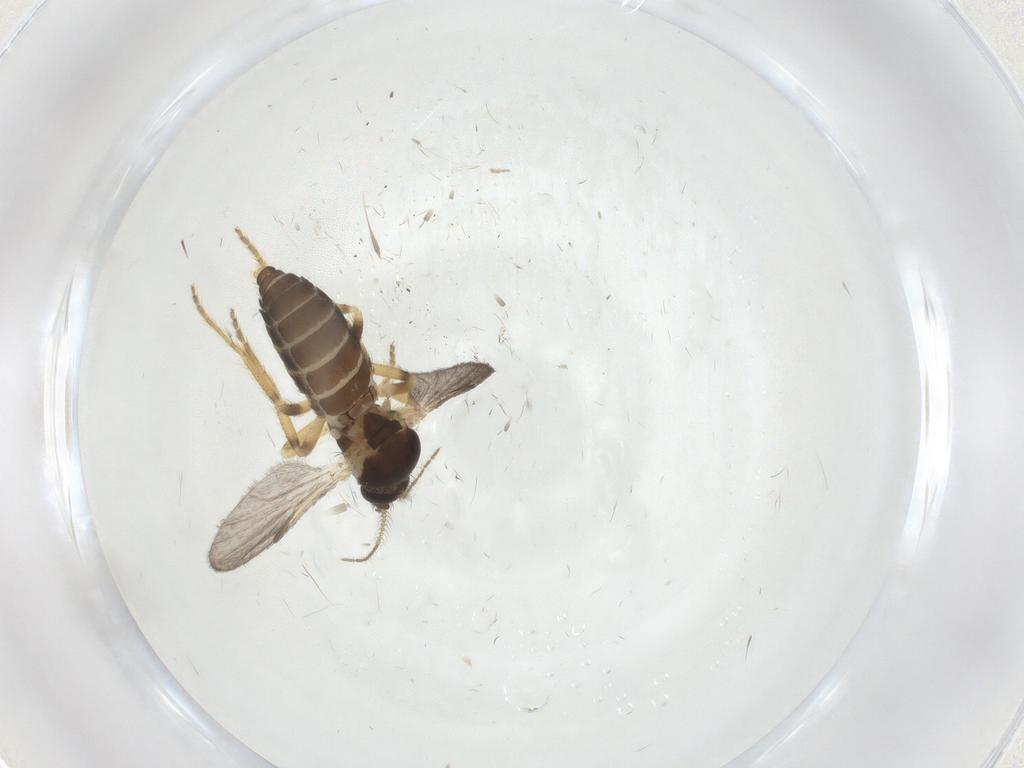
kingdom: Animalia
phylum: Arthropoda
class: Insecta
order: Diptera
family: Ceratopogonidae
